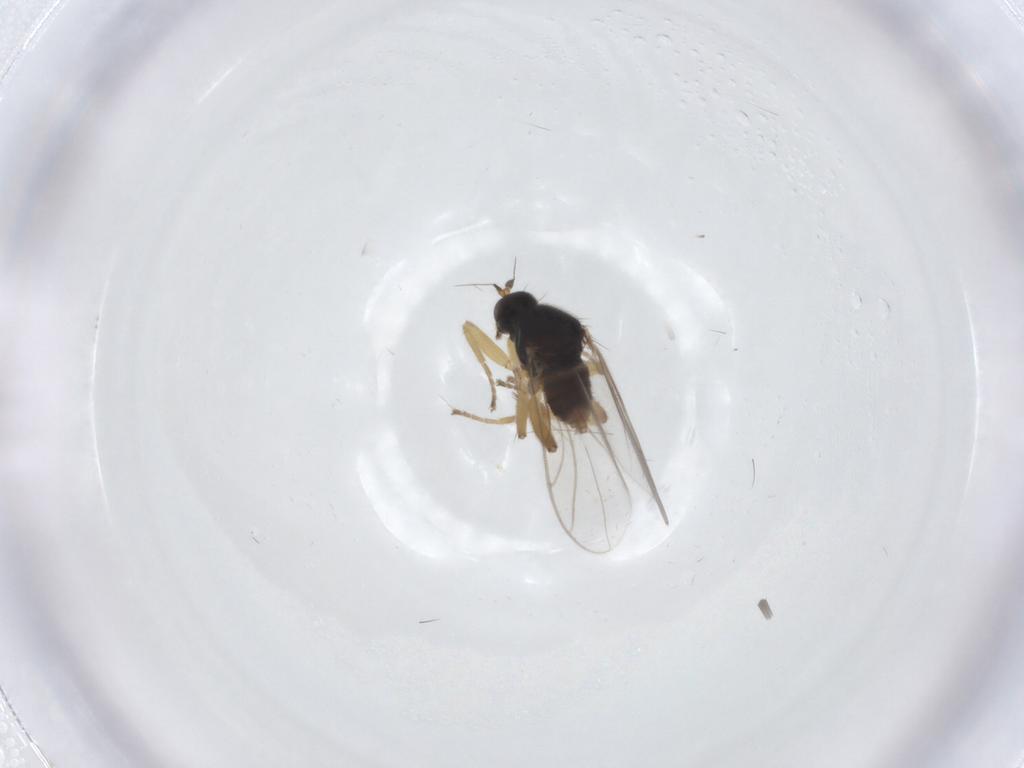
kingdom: Animalia
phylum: Arthropoda
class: Insecta
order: Diptera
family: Hybotidae
